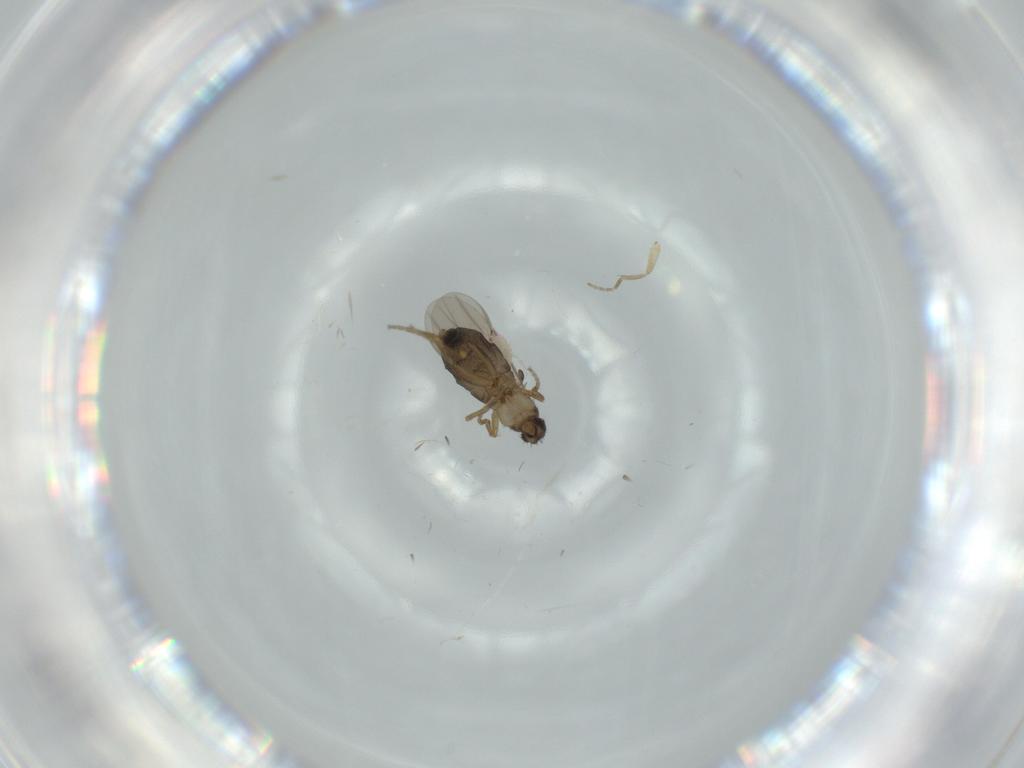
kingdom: Animalia
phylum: Arthropoda
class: Insecta
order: Diptera
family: Phoridae
